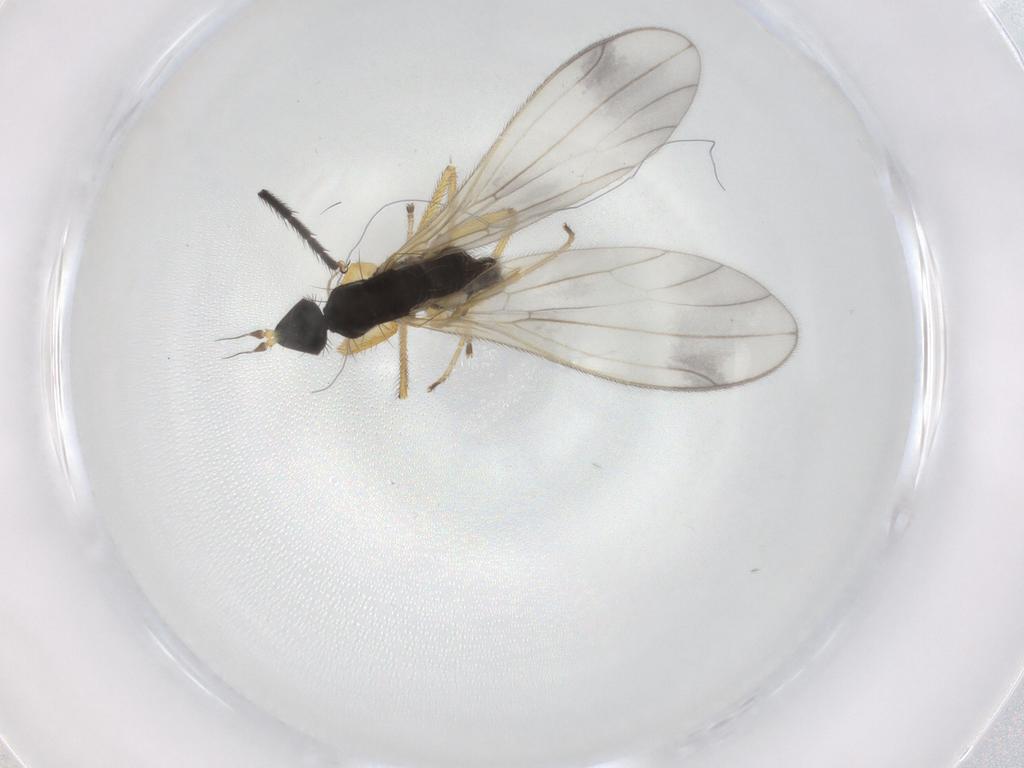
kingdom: Animalia
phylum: Arthropoda
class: Insecta
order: Diptera
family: Empididae
